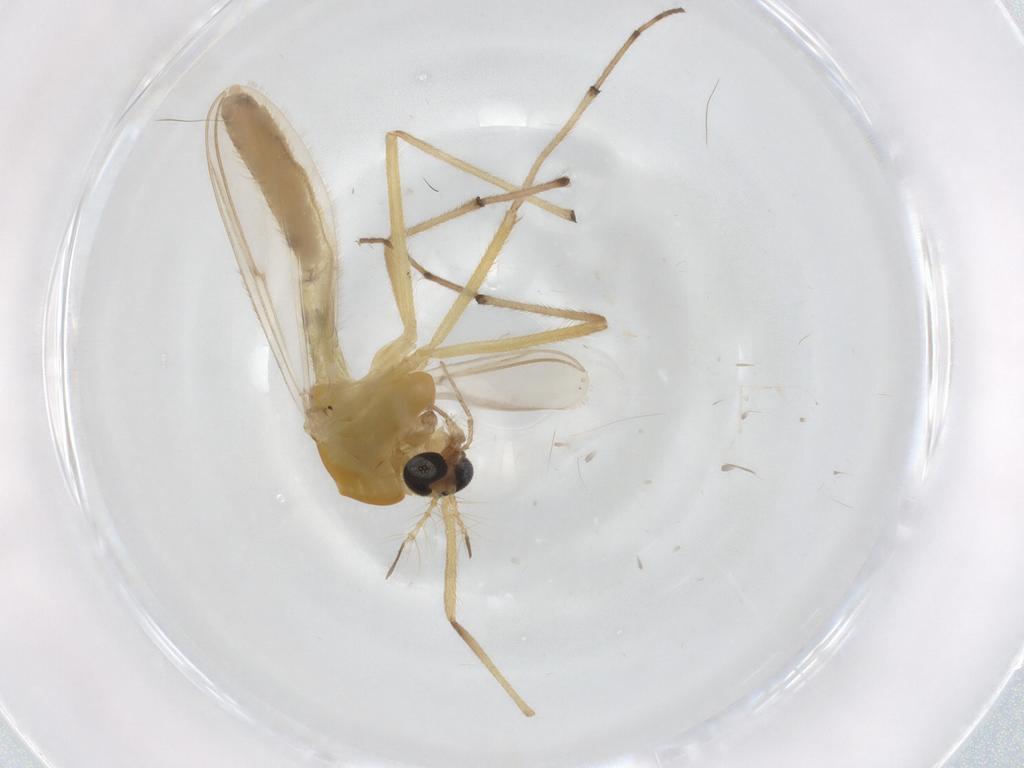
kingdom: Animalia
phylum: Arthropoda
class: Insecta
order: Diptera
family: Chironomidae
